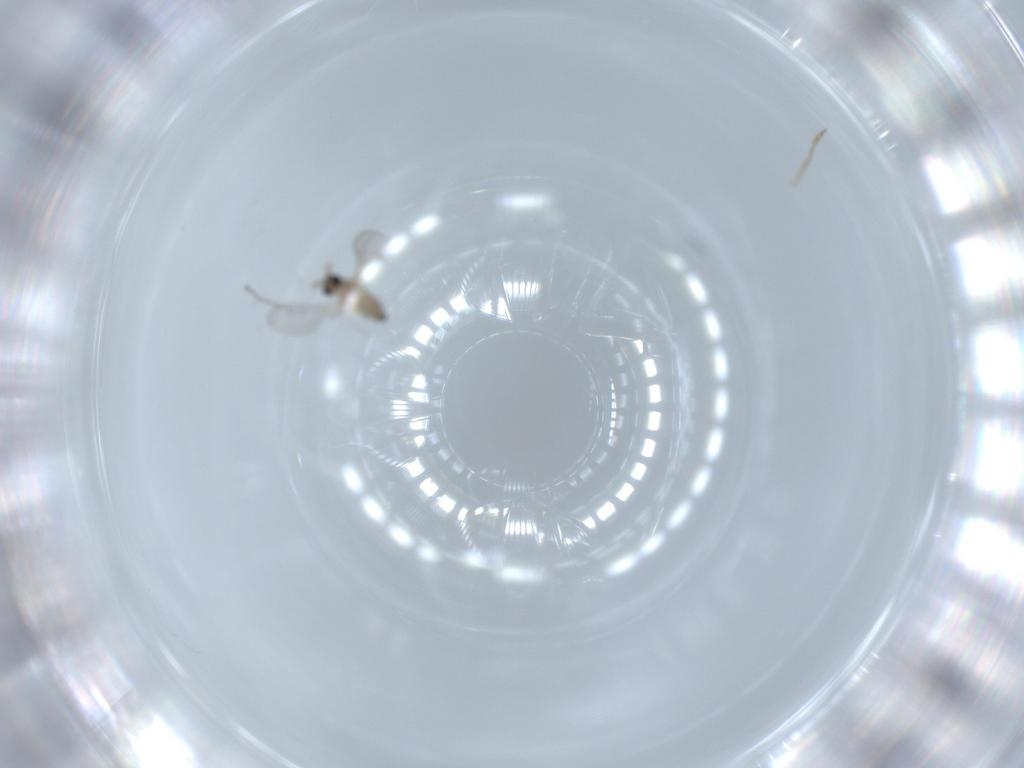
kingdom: Animalia
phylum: Arthropoda
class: Insecta
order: Diptera
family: Cecidomyiidae
